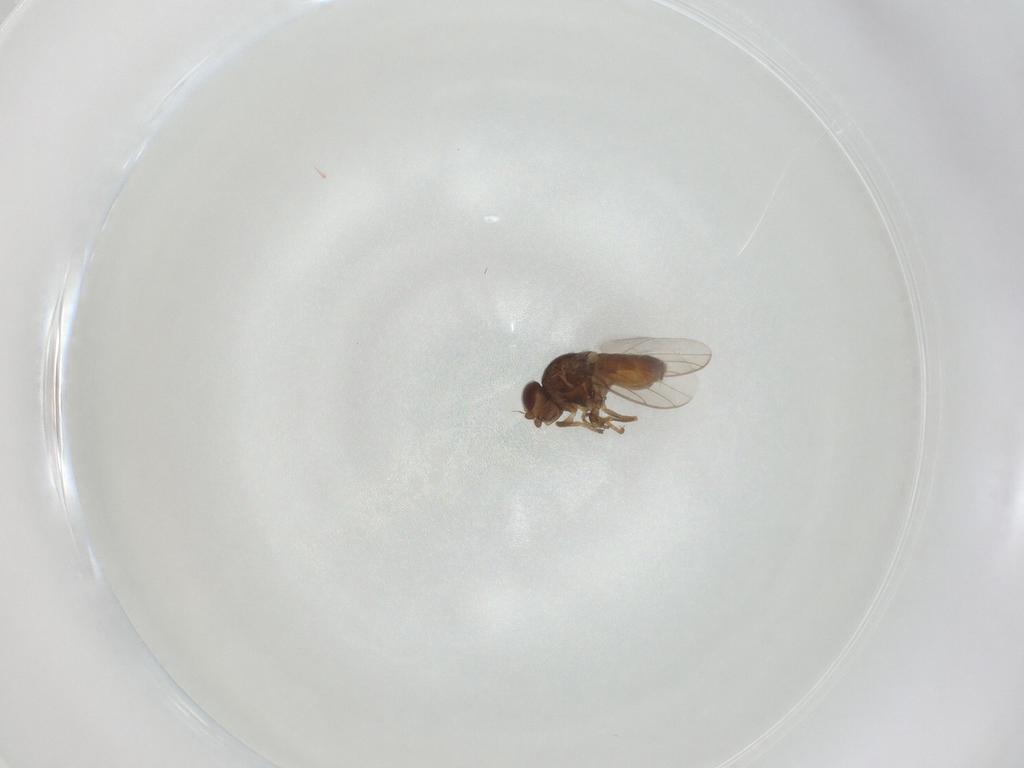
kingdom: Animalia
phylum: Arthropoda
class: Insecta
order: Diptera
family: Chloropidae
